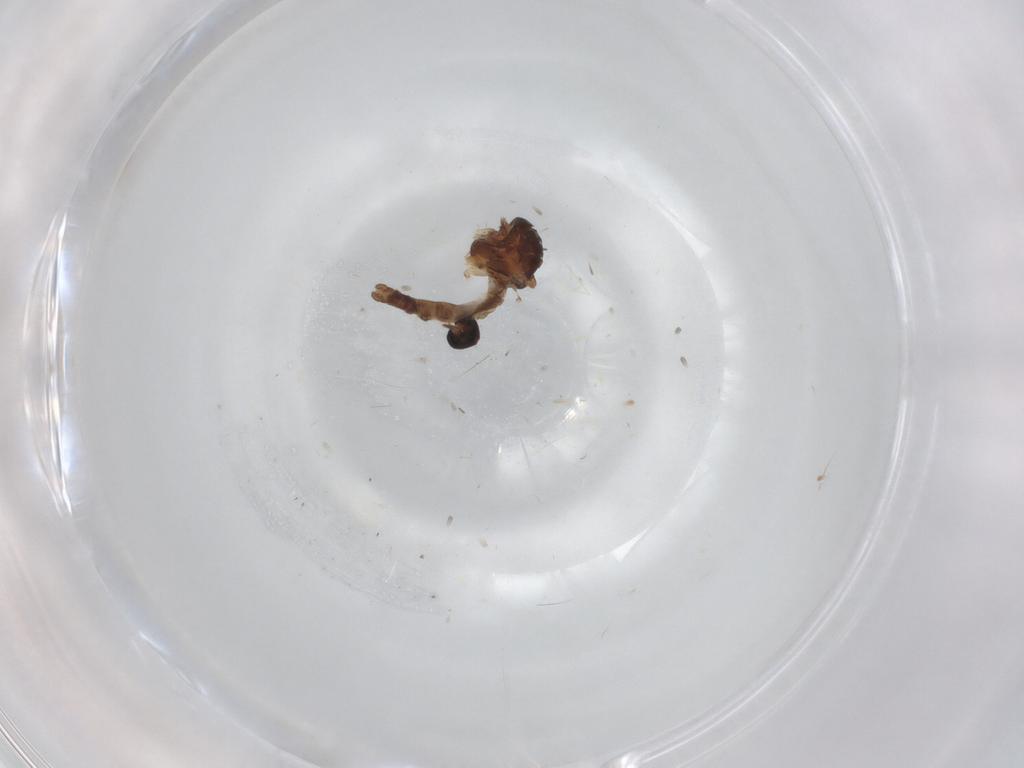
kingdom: Animalia
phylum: Arthropoda
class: Insecta
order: Diptera
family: Ceratopogonidae
